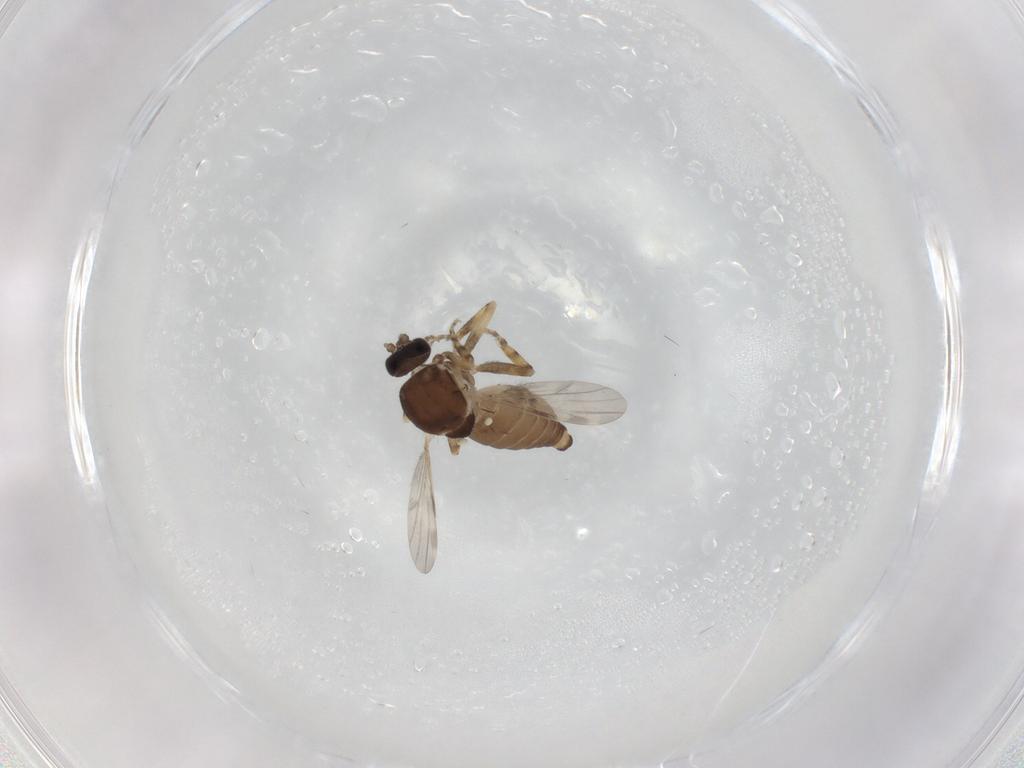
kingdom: Animalia
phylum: Arthropoda
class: Insecta
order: Diptera
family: Ceratopogonidae
